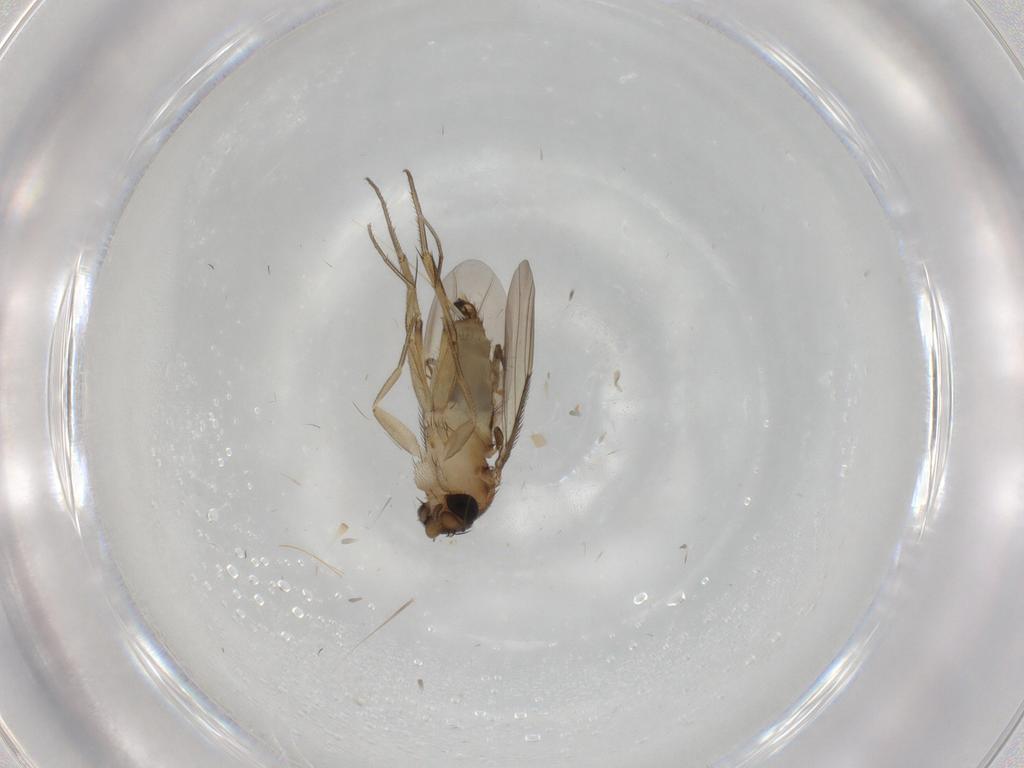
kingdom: Animalia
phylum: Arthropoda
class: Insecta
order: Diptera
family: Phoridae
